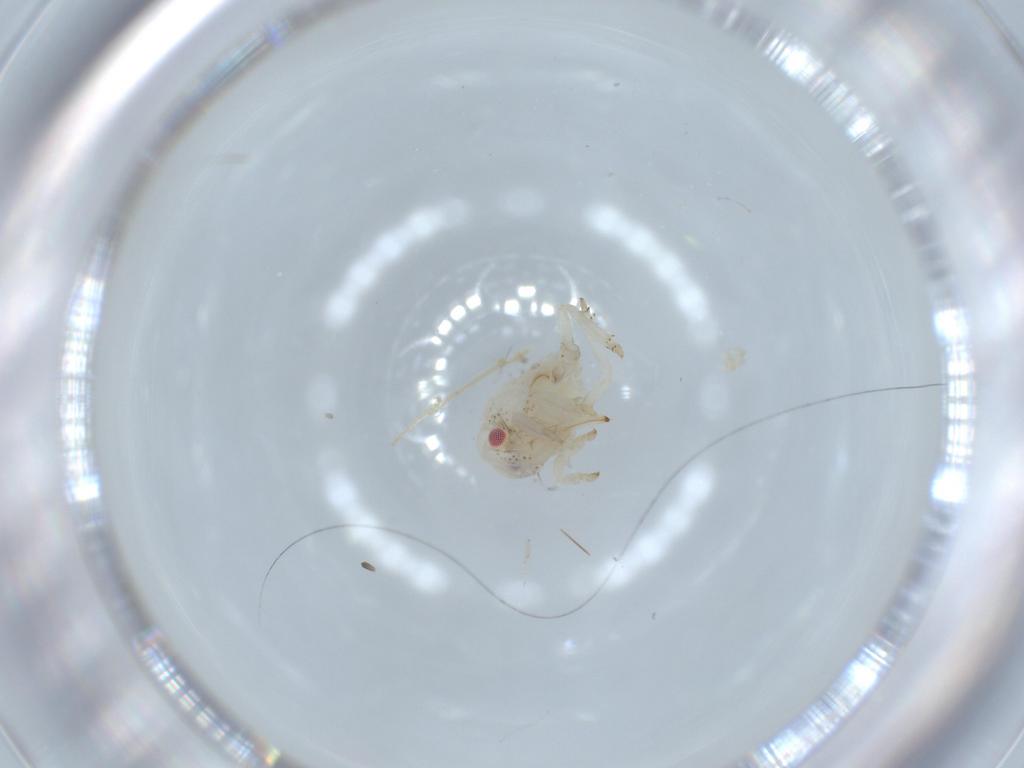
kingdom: Animalia
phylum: Arthropoda
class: Insecta
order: Hemiptera
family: Acanaloniidae
